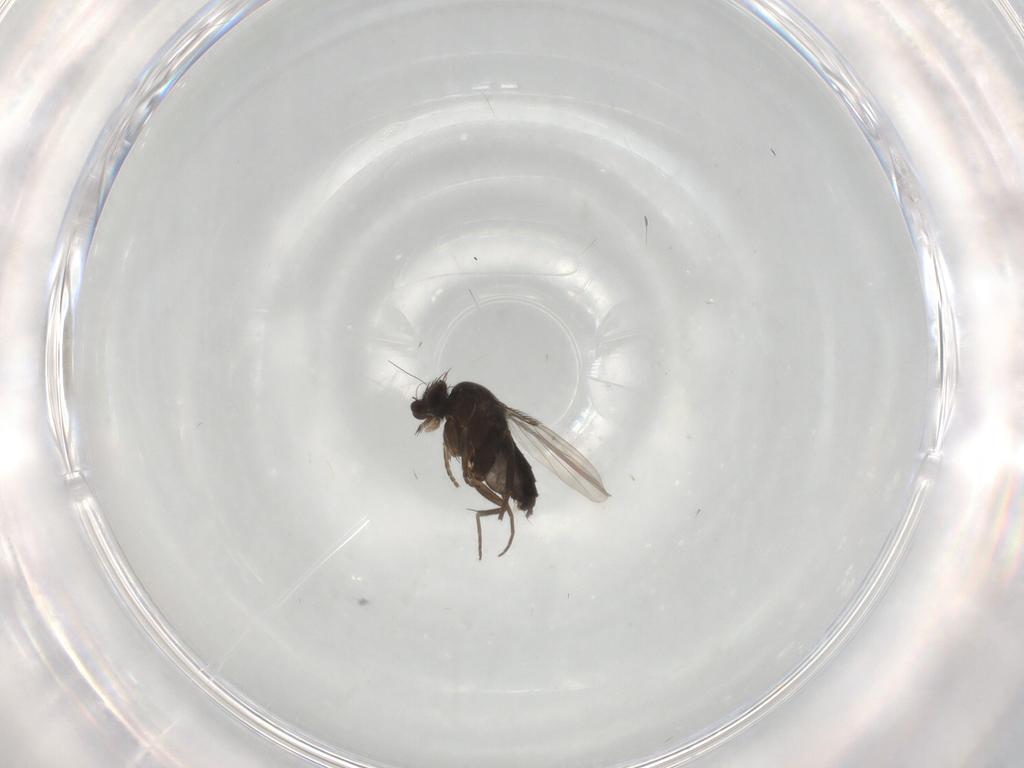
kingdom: Animalia
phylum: Arthropoda
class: Insecta
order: Diptera
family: Phoridae
